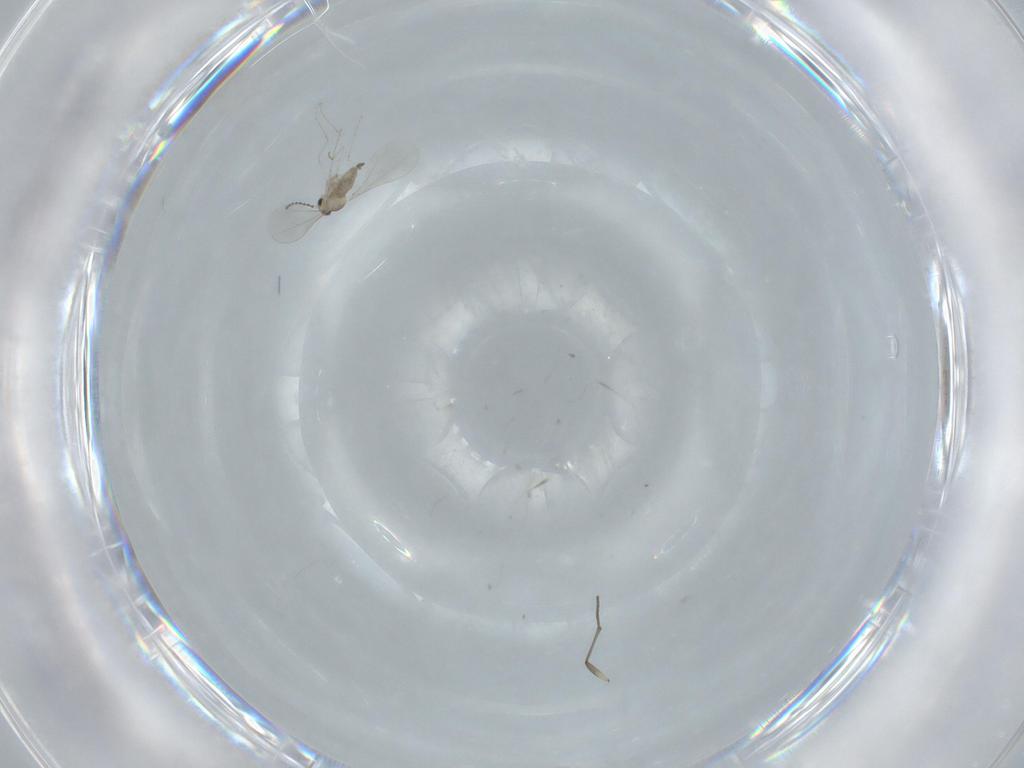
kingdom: Animalia
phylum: Arthropoda
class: Insecta
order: Diptera
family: Cecidomyiidae
